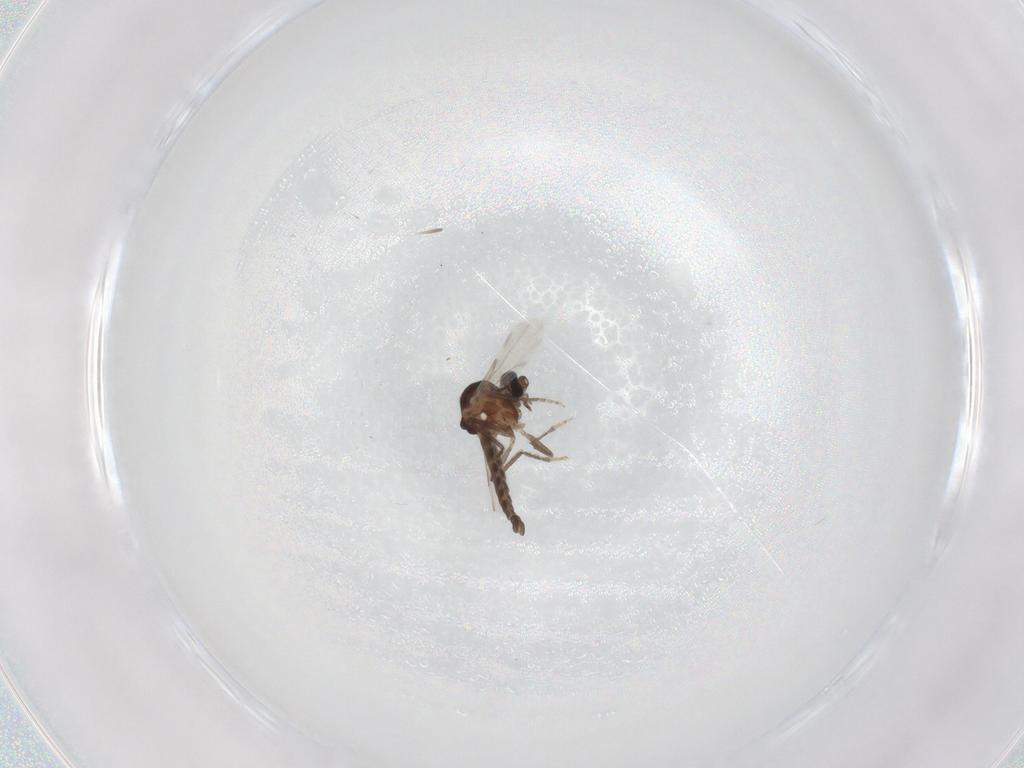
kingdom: Animalia
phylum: Arthropoda
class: Insecta
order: Diptera
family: Ceratopogonidae
